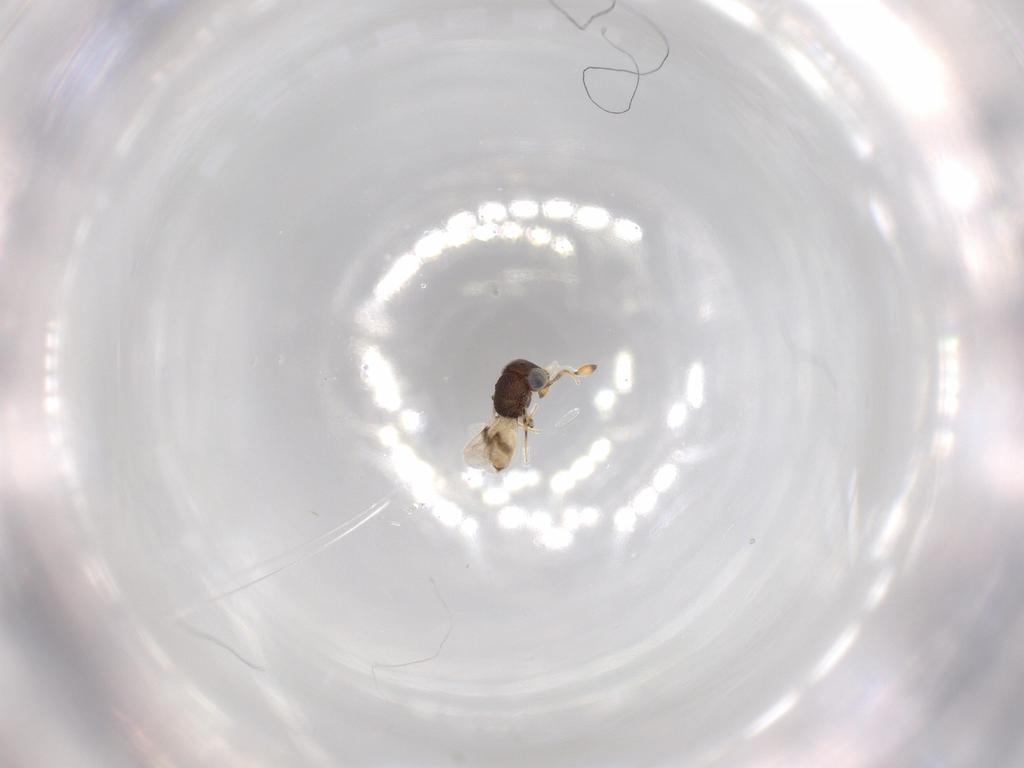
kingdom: Animalia
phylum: Arthropoda
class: Insecta
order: Hymenoptera
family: Scelionidae
